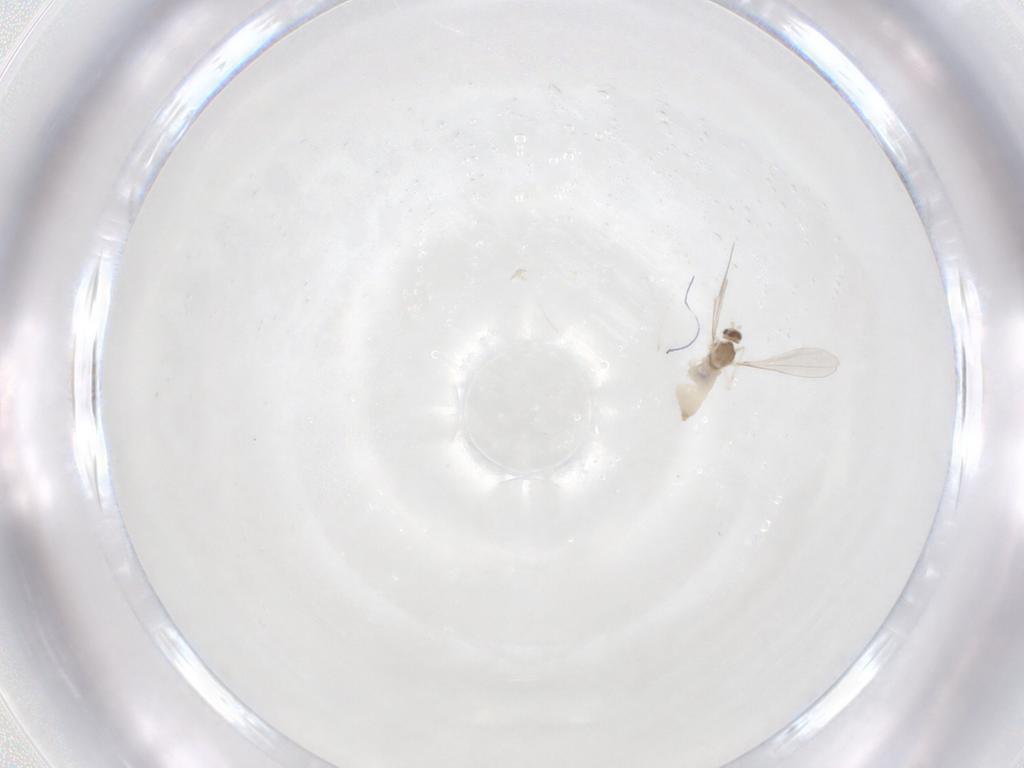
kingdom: Animalia
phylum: Arthropoda
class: Insecta
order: Diptera
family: Cecidomyiidae
